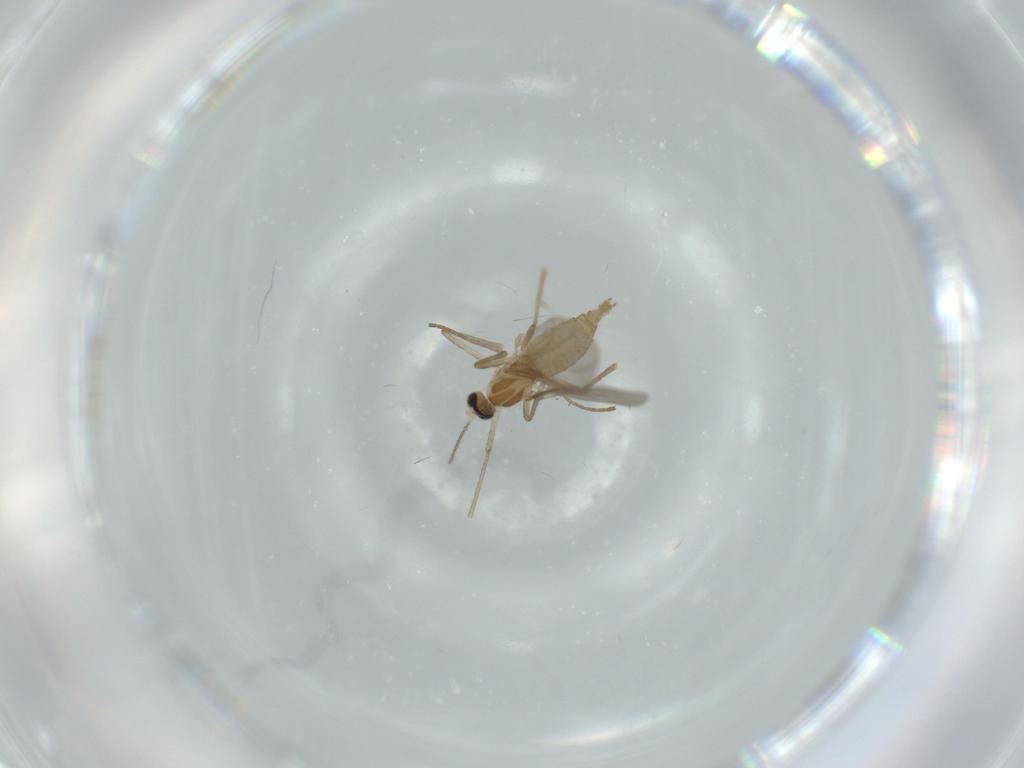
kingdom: Animalia
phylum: Arthropoda
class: Insecta
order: Diptera
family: Cecidomyiidae
